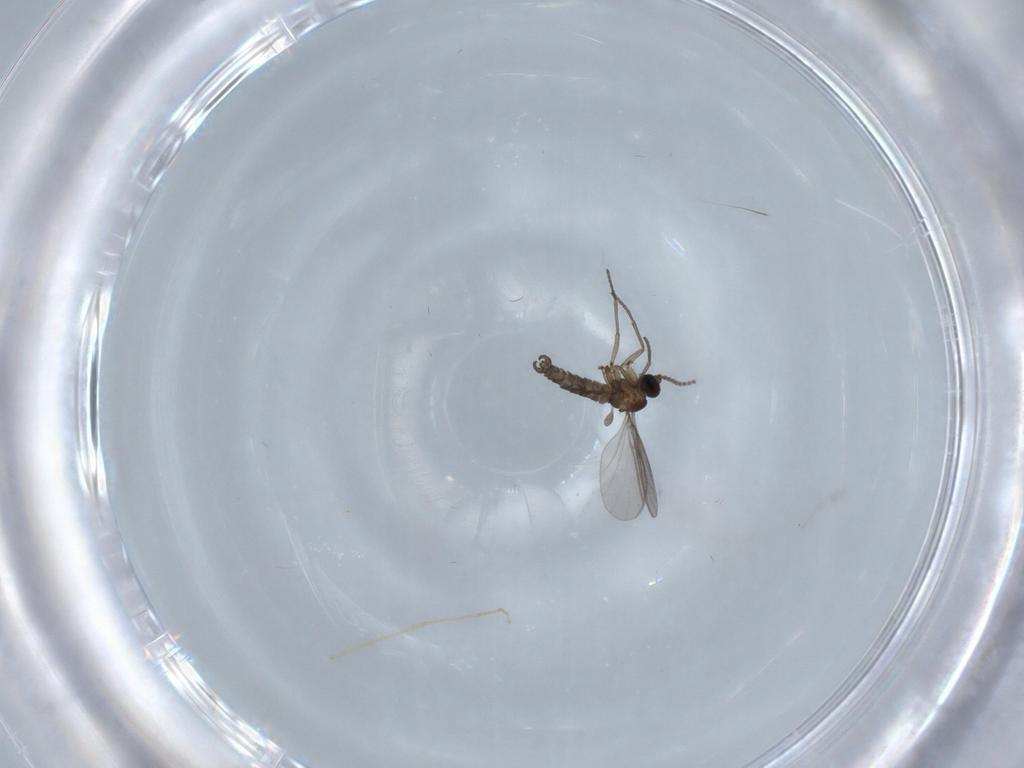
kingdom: Animalia
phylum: Arthropoda
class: Insecta
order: Diptera
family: Chironomidae
